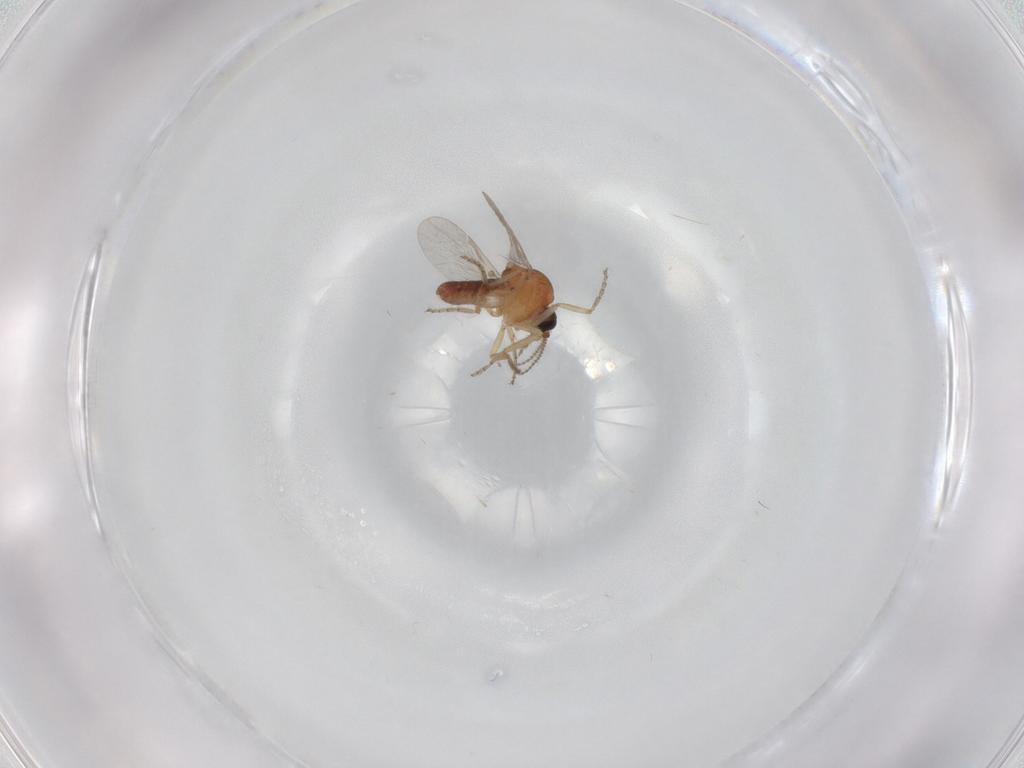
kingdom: Animalia
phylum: Arthropoda
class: Insecta
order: Diptera
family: Ceratopogonidae
